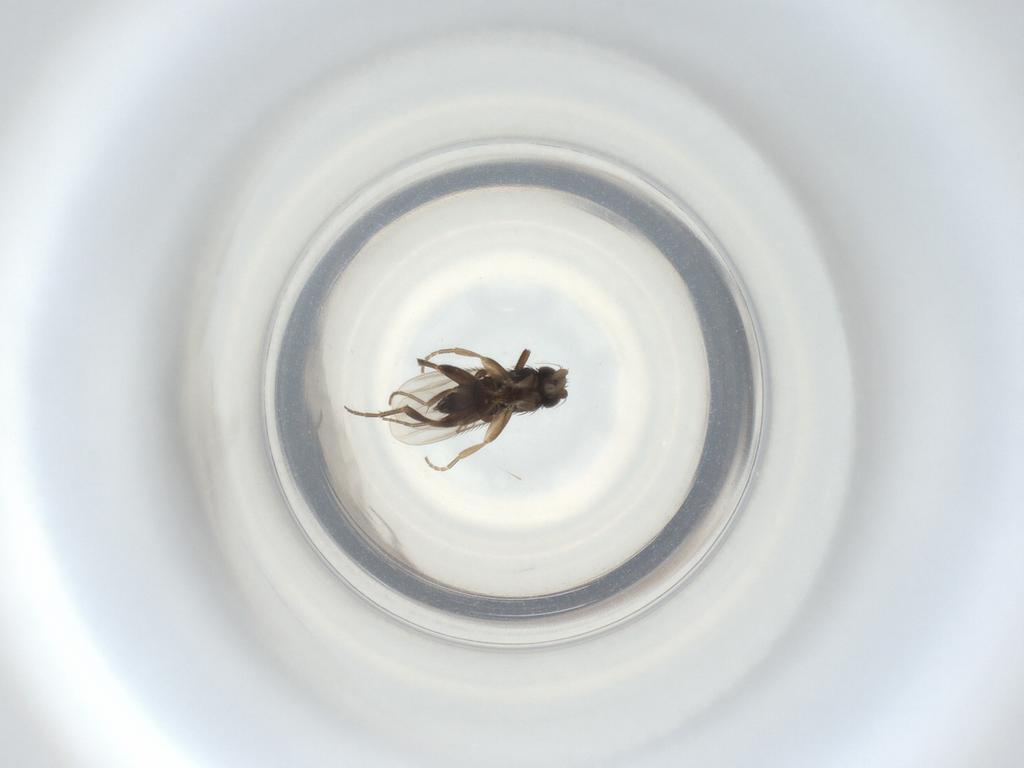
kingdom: Animalia
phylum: Arthropoda
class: Insecta
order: Diptera
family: Phoridae
